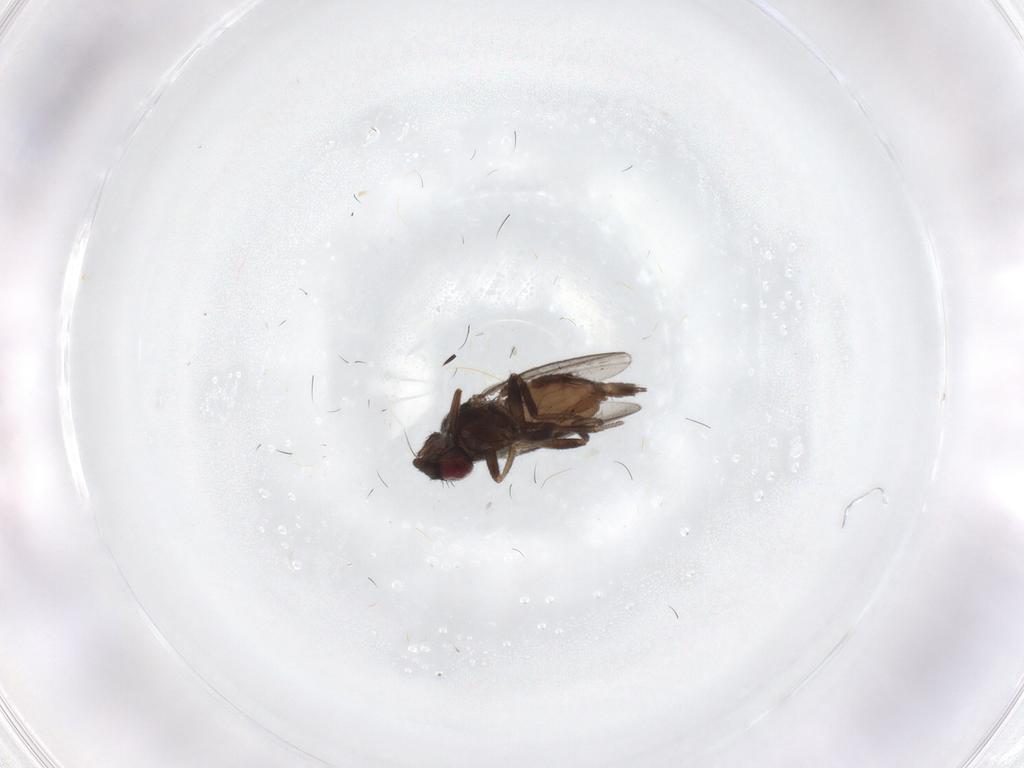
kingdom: Animalia
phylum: Arthropoda
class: Insecta
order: Diptera
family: Milichiidae
